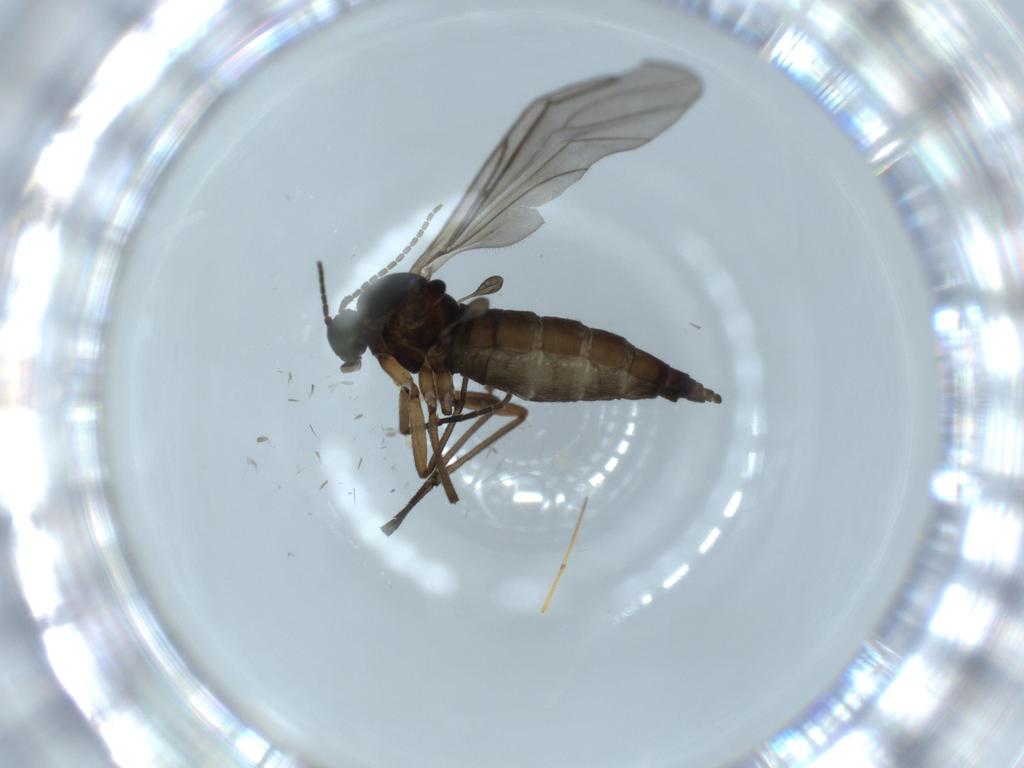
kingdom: Animalia
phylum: Arthropoda
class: Insecta
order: Diptera
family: Sciaridae
